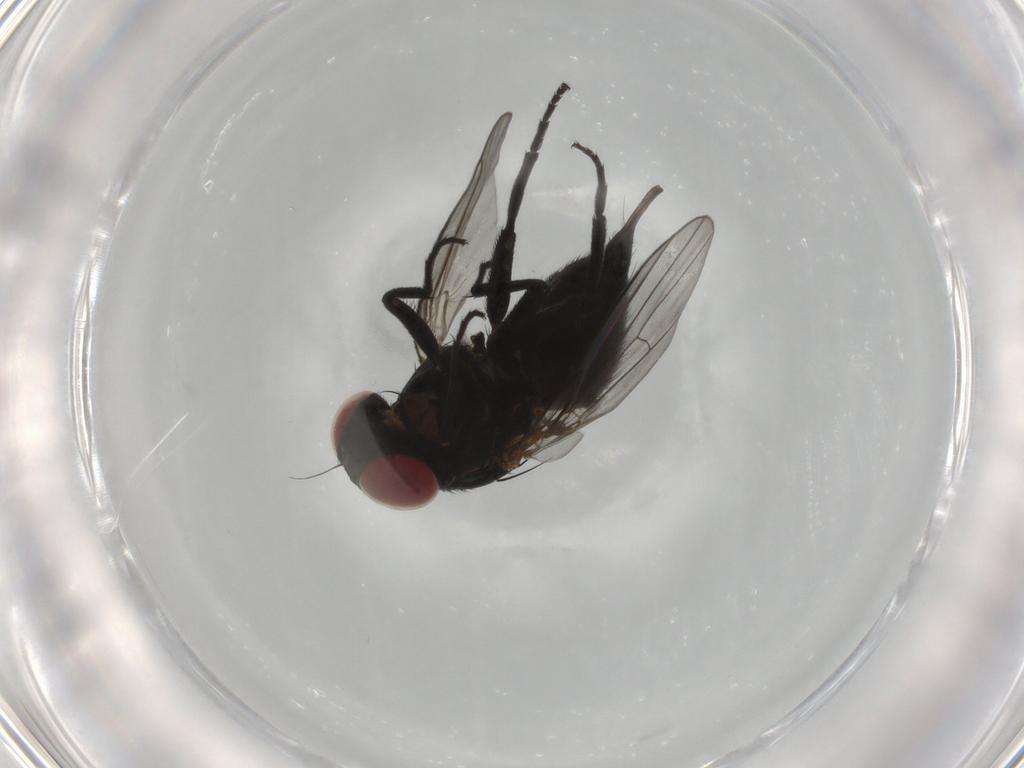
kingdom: Animalia
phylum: Arthropoda
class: Insecta
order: Diptera
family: Agromyzidae
